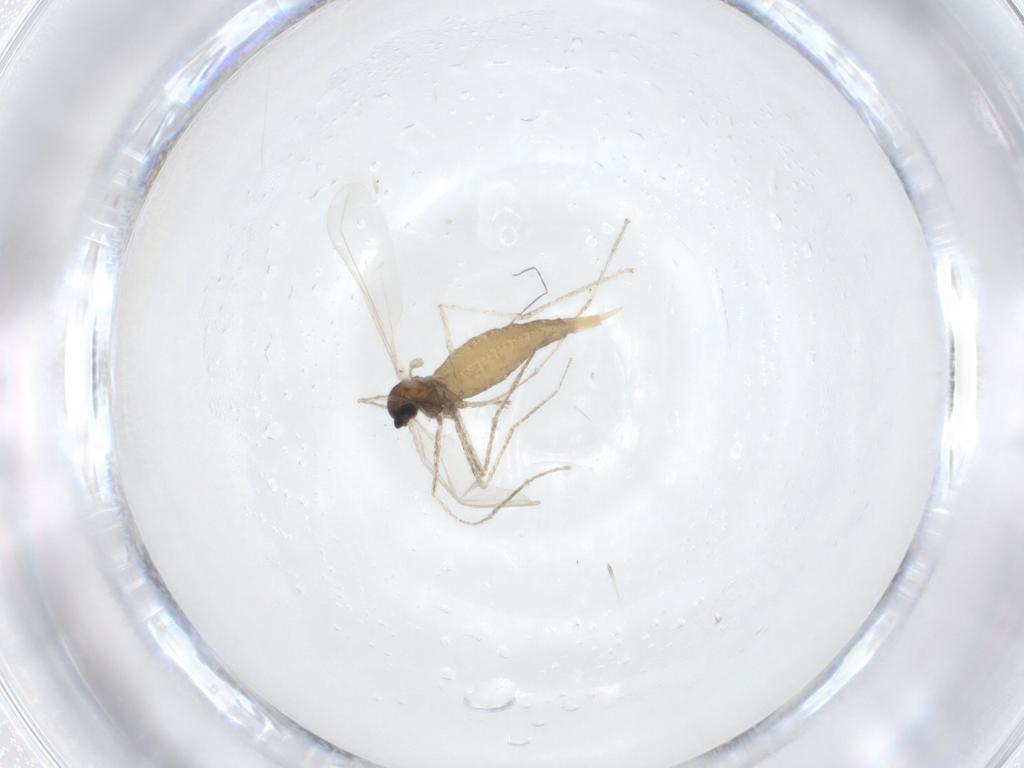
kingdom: Animalia
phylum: Arthropoda
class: Insecta
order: Diptera
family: Cecidomyiidae
